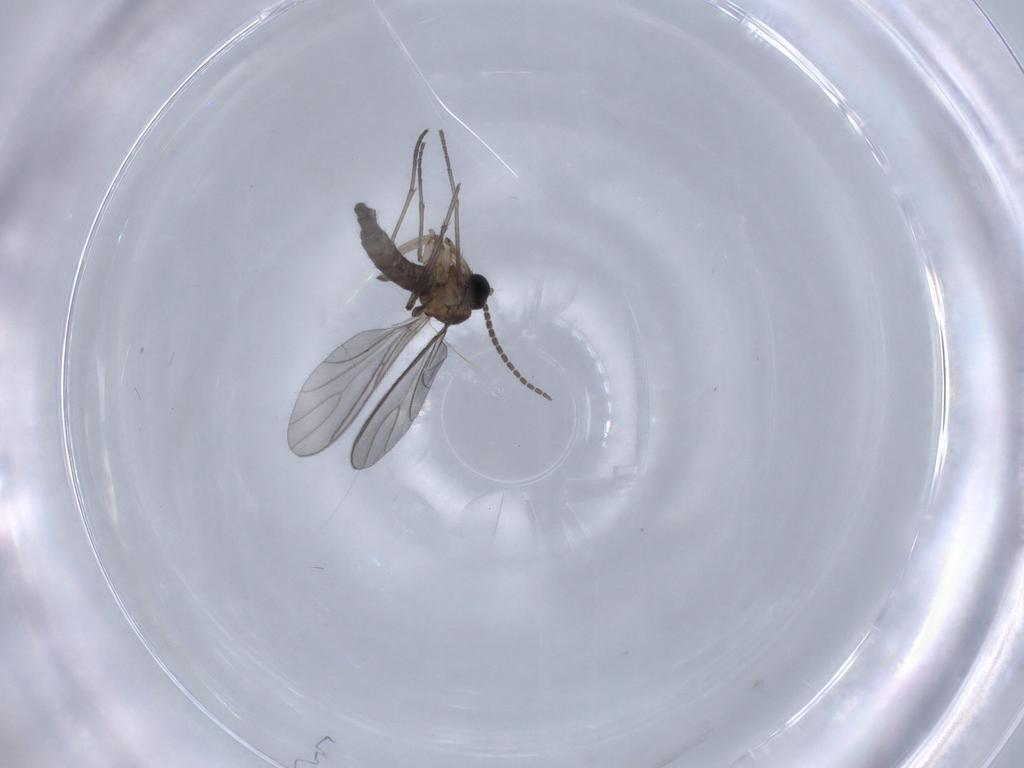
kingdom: Animalia
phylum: Arthropoda
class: Insecta
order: Diptera
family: Sciaridae
